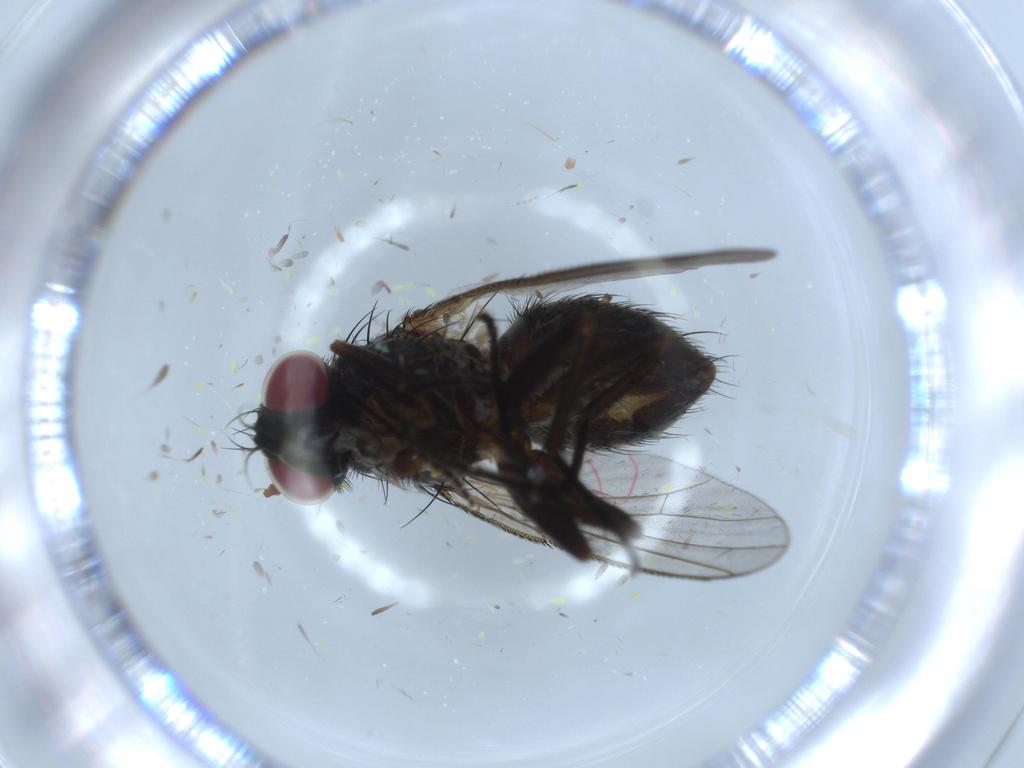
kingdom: Animalia
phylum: Arthropoda
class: Insecta
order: Diptera
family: Muscidae
